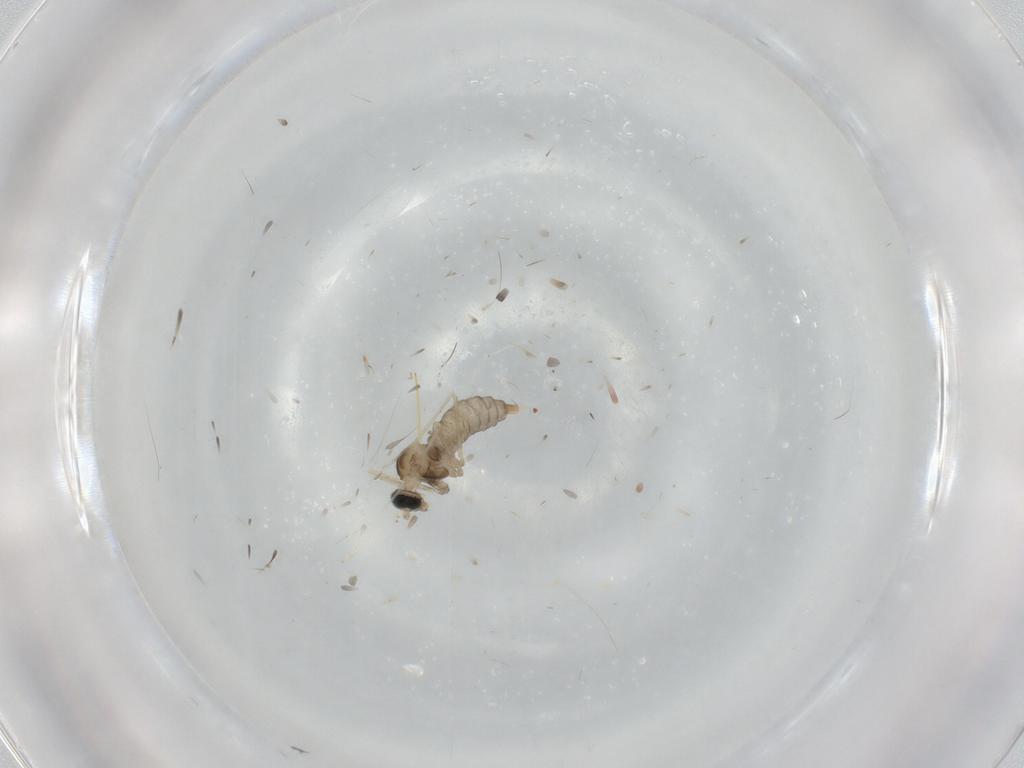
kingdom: Animalia
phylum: Arthropoda
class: Insecta
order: Diptera
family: Cecidomyiidae
